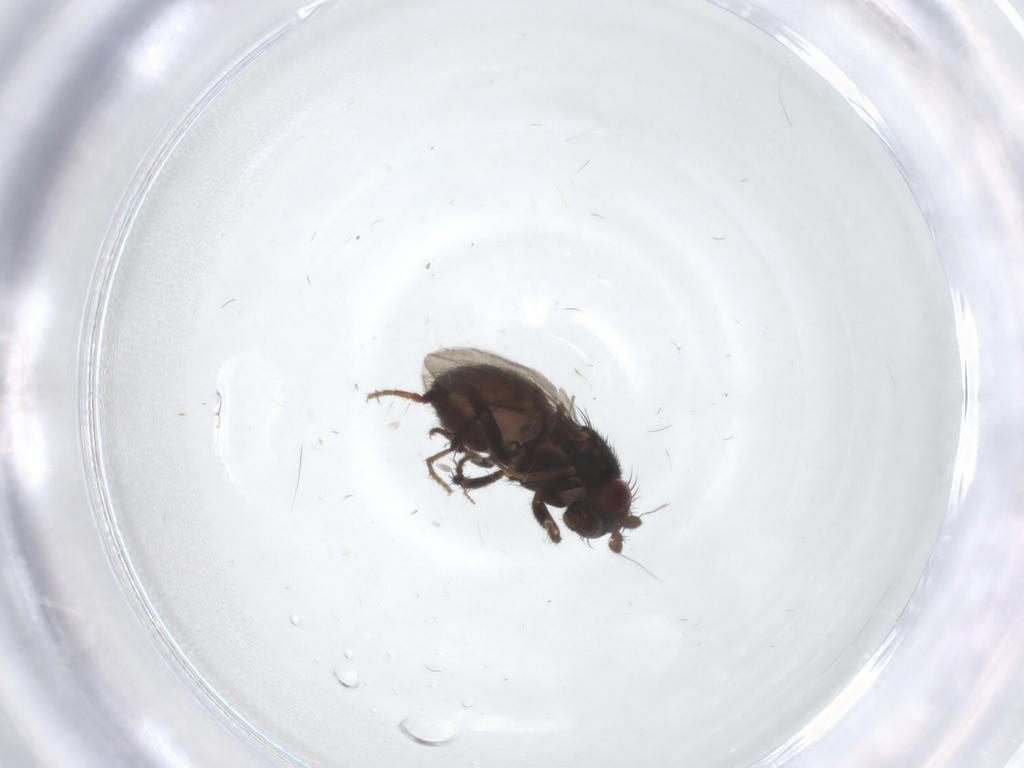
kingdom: Animalia
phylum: Arthropoda
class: Insecta
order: Diptera
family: Sphaeroceridae
